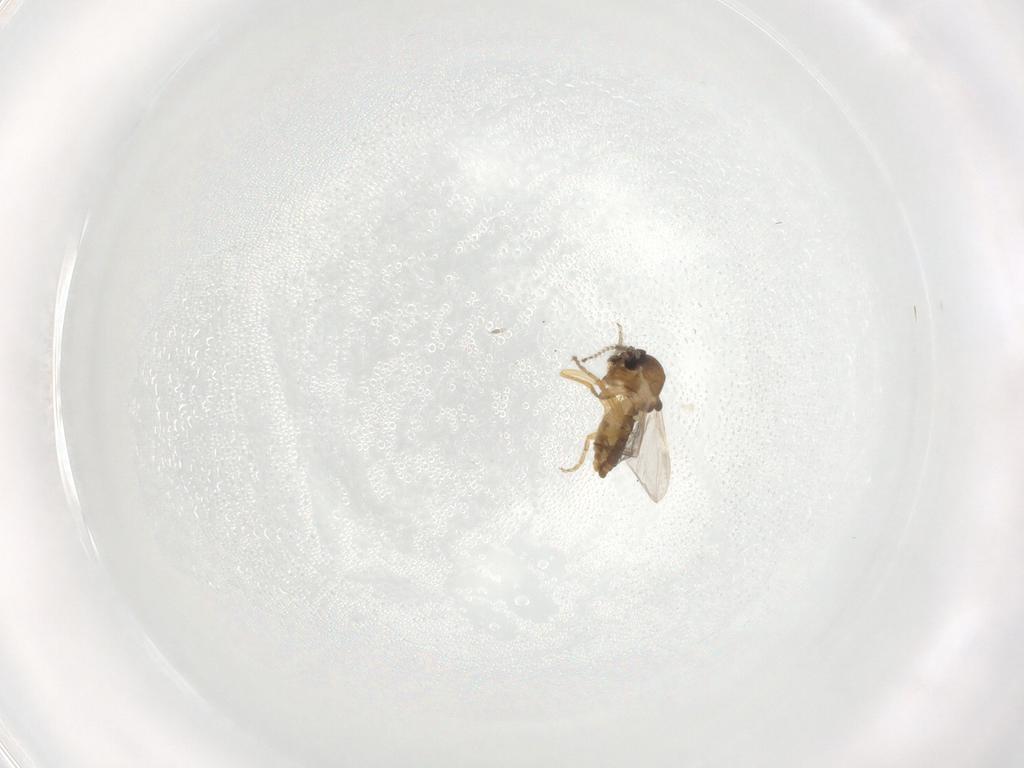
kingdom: Animalia
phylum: Arthropoda
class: Insecta
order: Diptera
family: Ceratopogonidae
